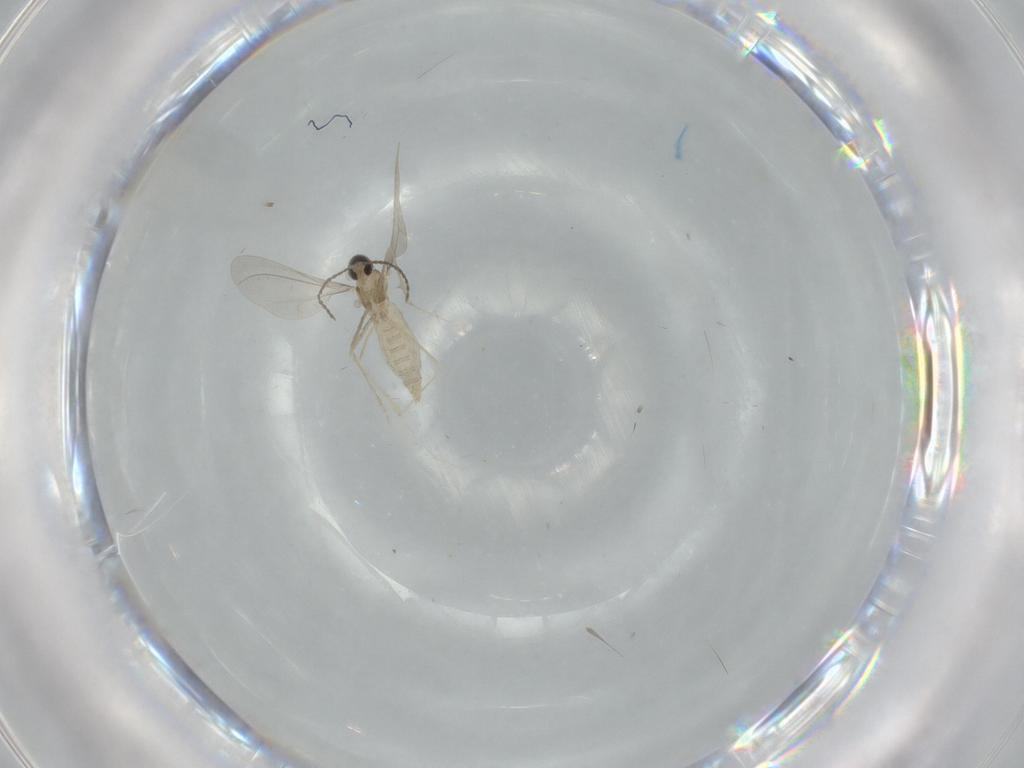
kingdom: Animalia
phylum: Arthropoda
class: Insecta
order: Diptera
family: Cecidomyiidae
